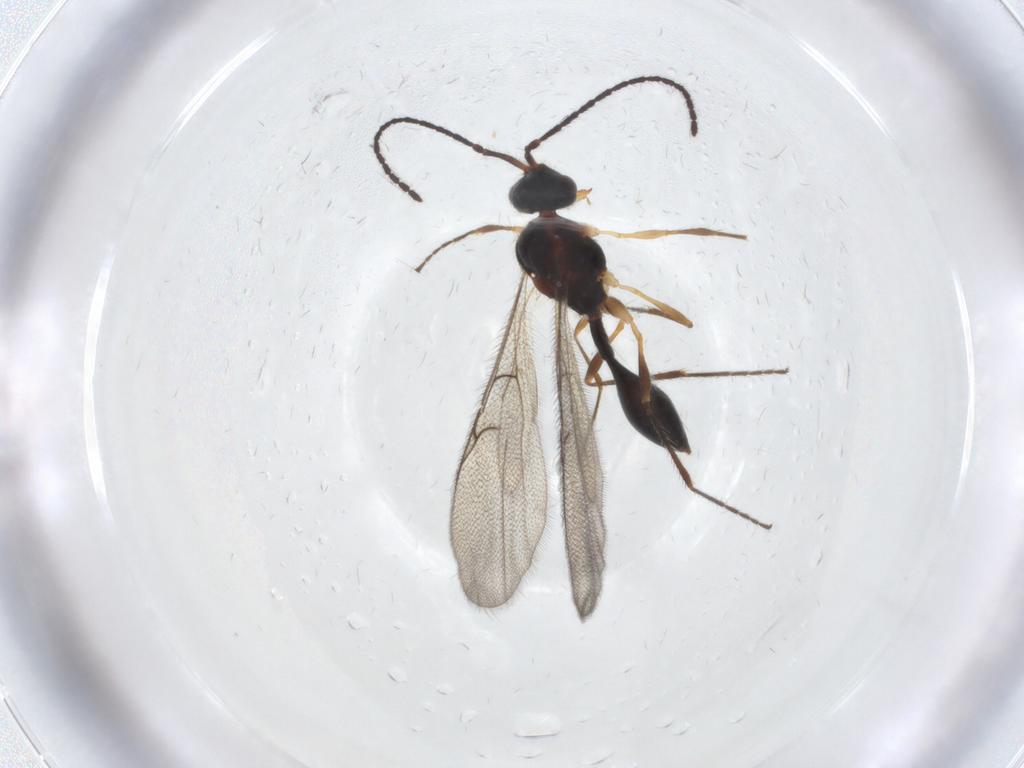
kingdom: Animalia
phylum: Arthropoda
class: Insecta
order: Hymenoptera
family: Diapriidae
